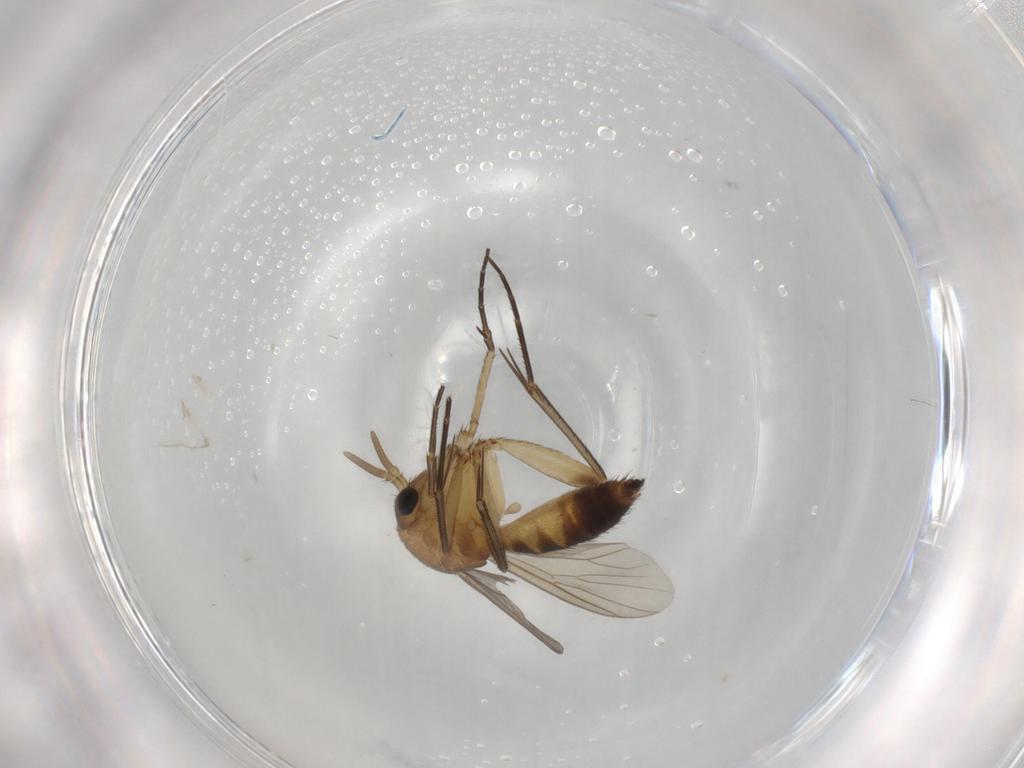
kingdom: Animalia
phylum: Arthropoda
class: Insecta
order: Diptera
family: Mycetophilidae
